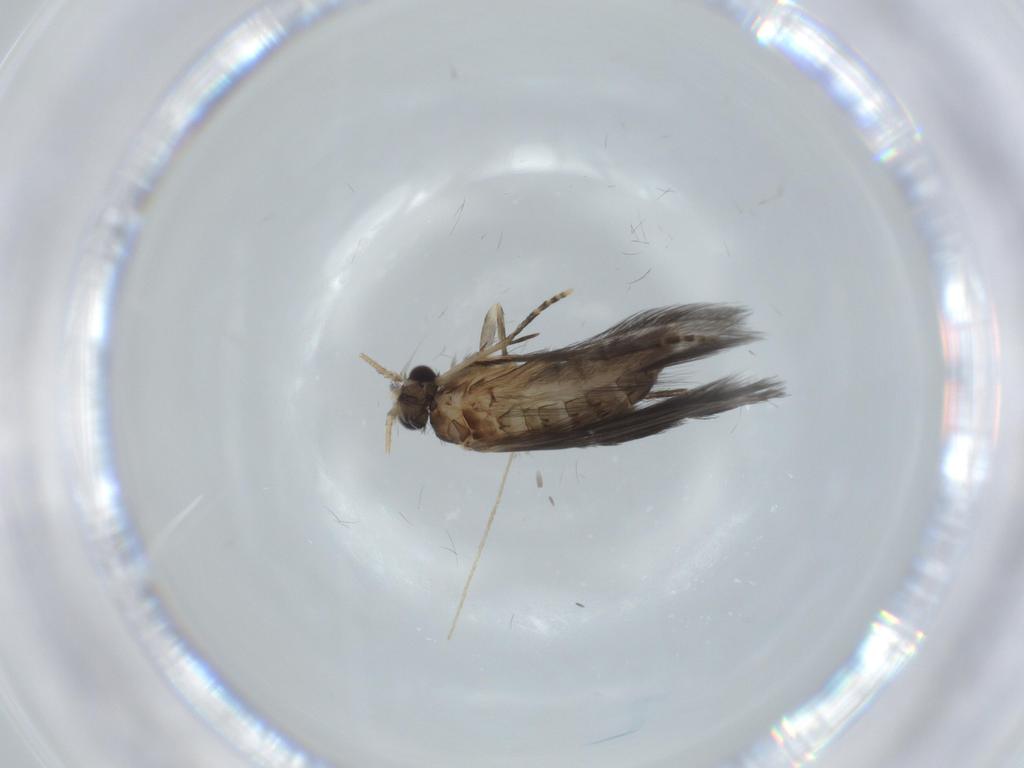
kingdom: Animalia
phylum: Arthropoda
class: Insecta
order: Trichoptera
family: Hydroptilidae
